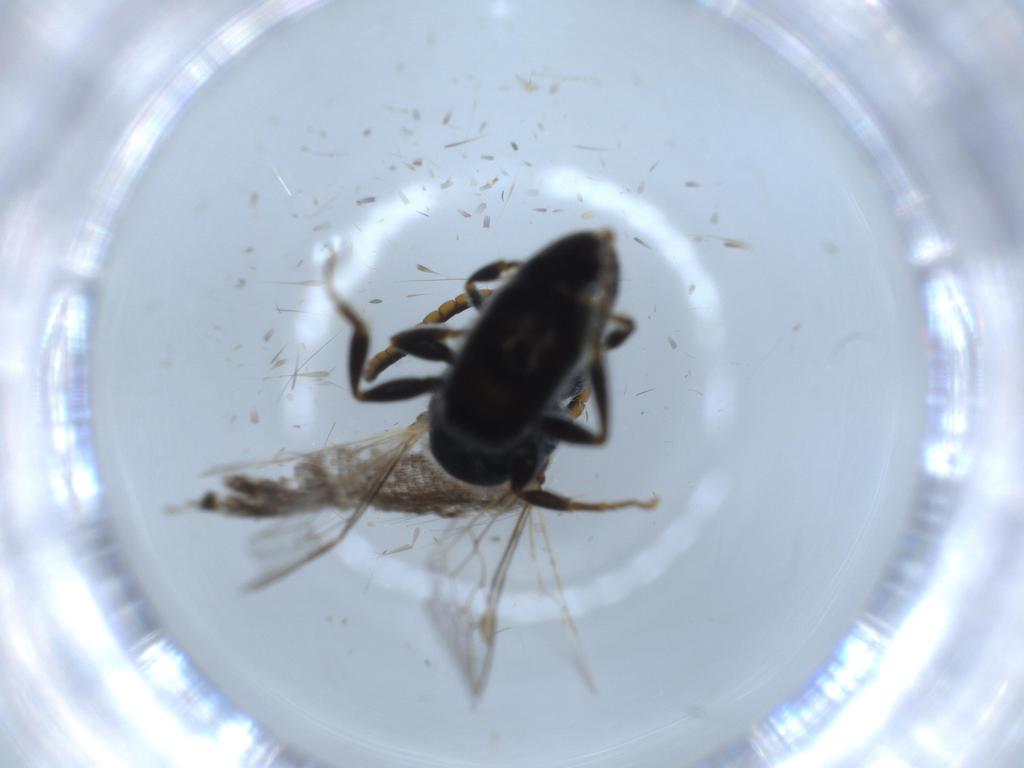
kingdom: Animalia
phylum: Arthropoda
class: Insecta
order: Hymenoptera
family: Halictidae
